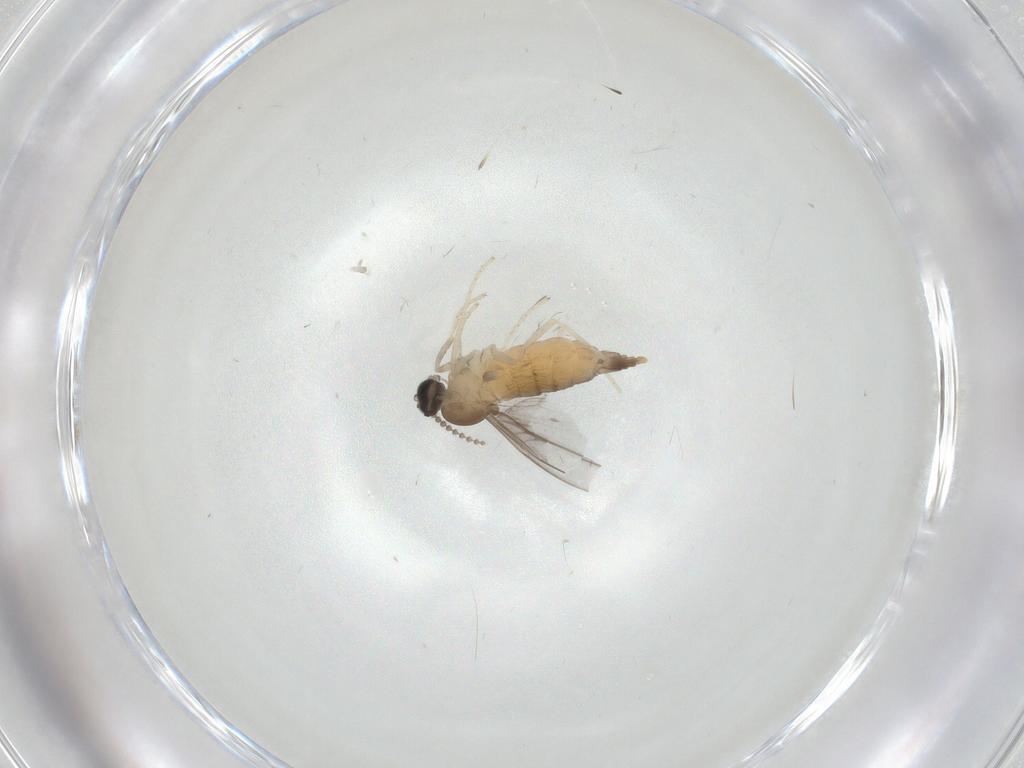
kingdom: Animalia
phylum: Arthropoda
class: Insecta
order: Diptera
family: Cecidomyiidae
